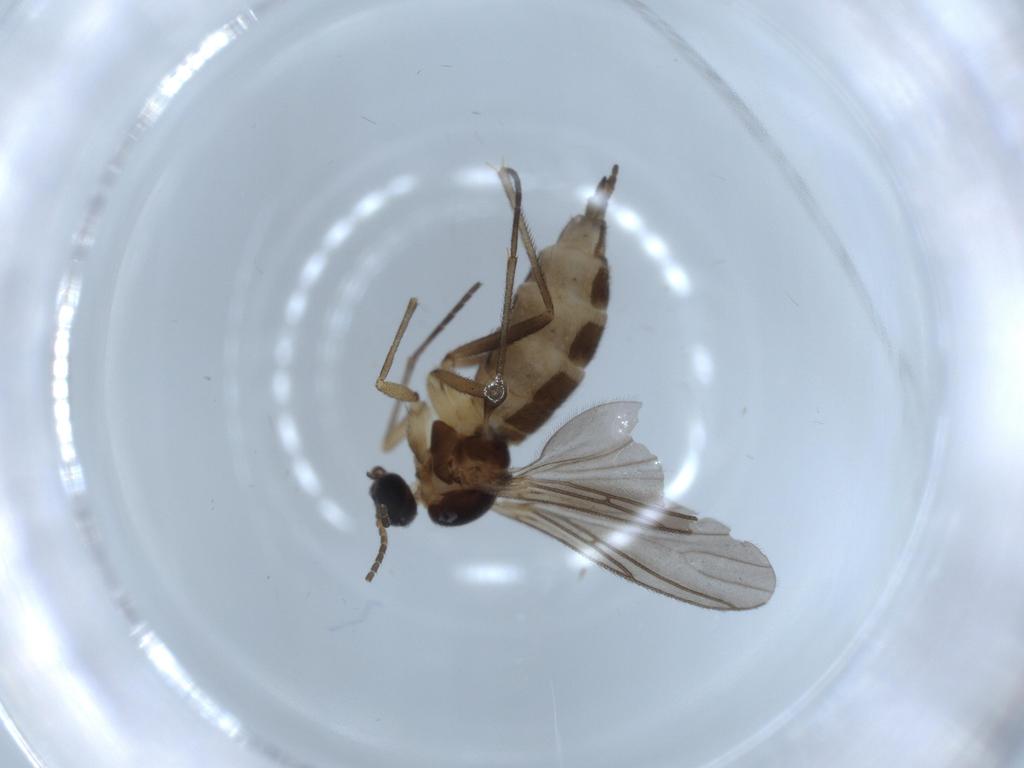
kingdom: Animalia
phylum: Arthropoda
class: Insecta
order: Diptera
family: Sciaridae
